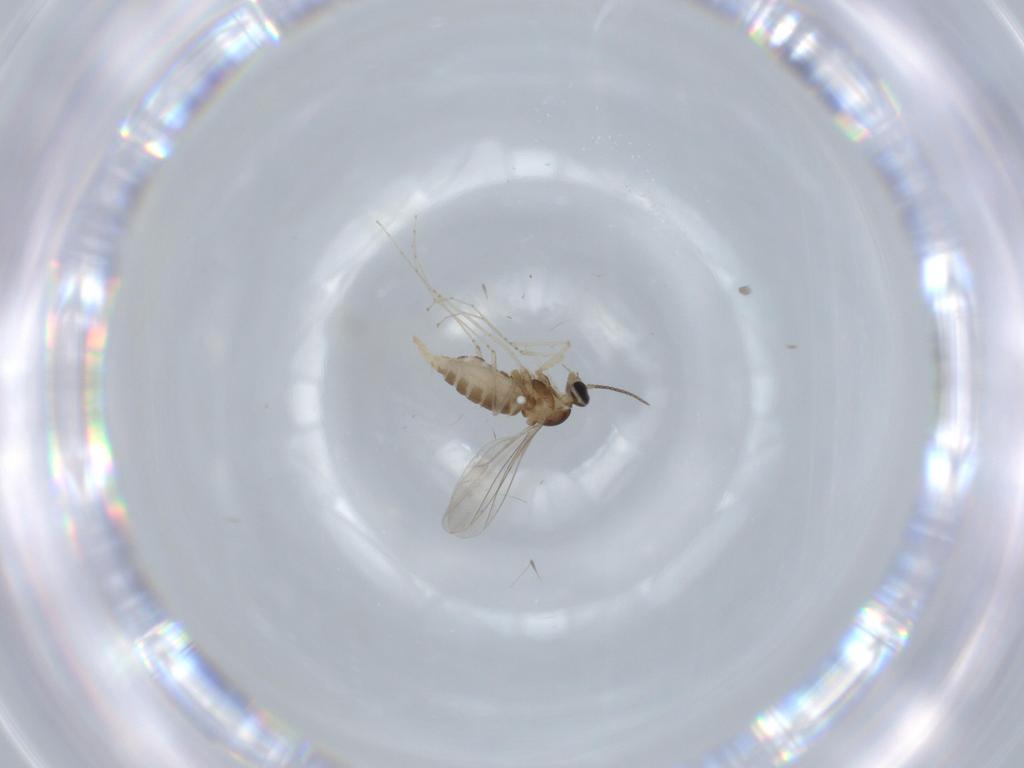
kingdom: Animalia
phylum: Arthropoda
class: Insecta
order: Diptera
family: Cecidomyiidae
